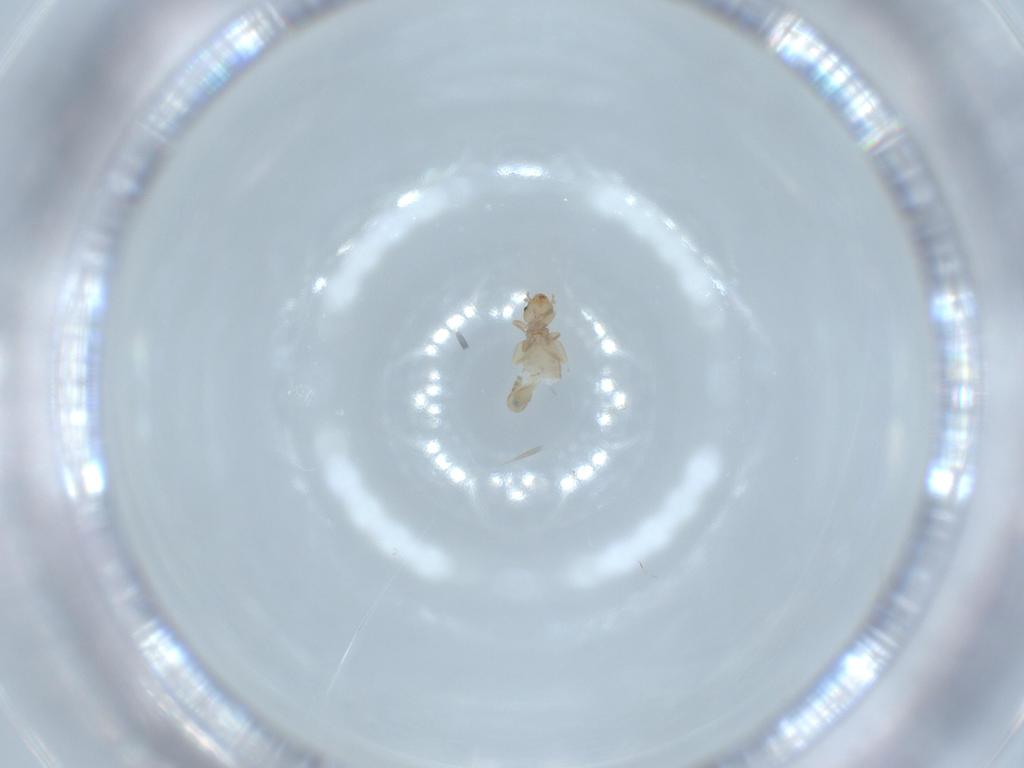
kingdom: Animalia
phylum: Arthropoda
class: Insecta
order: Psocodea
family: Liposcelididae
